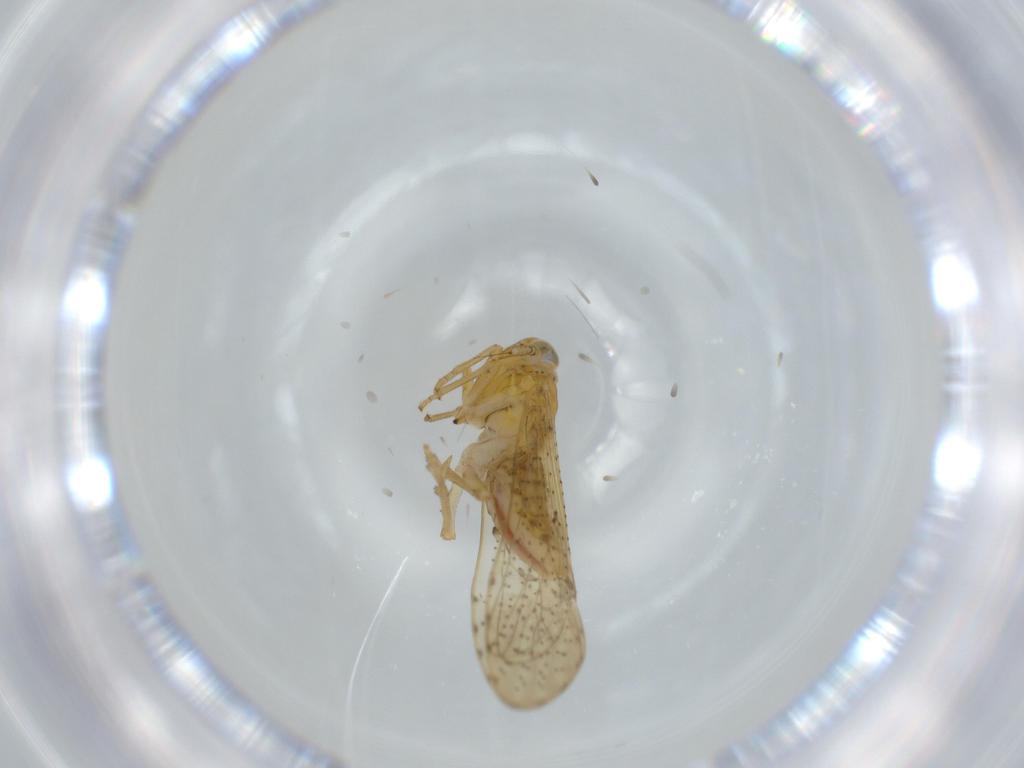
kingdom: Animalia
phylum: Arthropoda
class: Insecta
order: Hemiptera
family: Delphacidae
